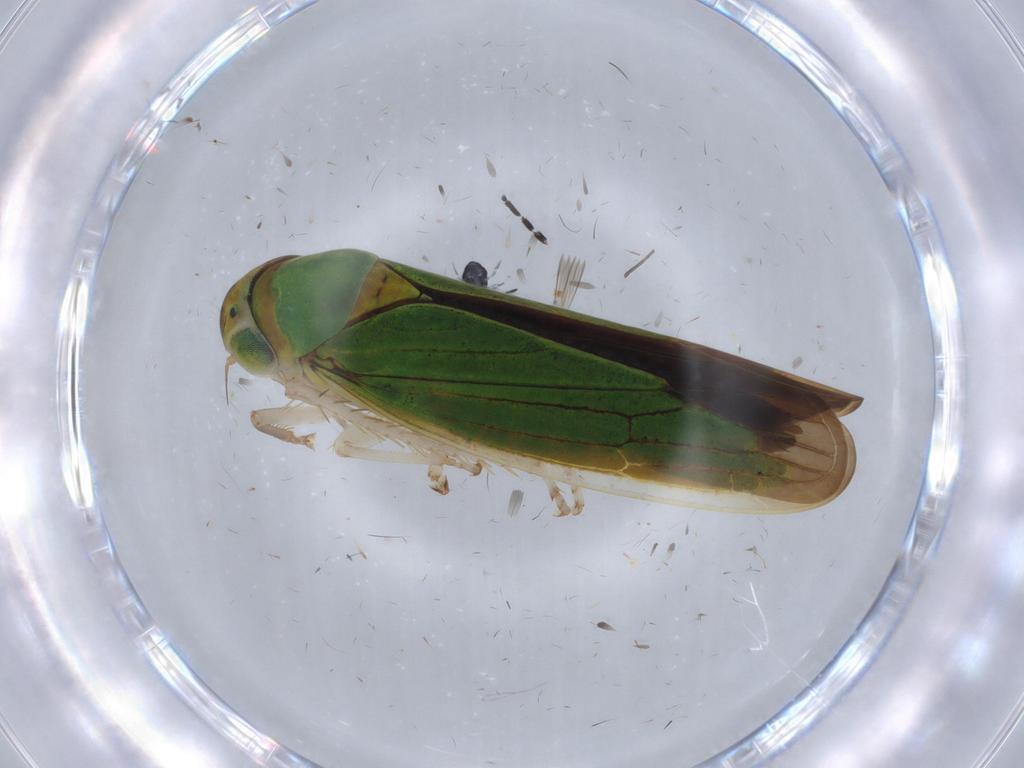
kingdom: Animalia
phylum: Arthropoda
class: Insecta
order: Hemiptera
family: Cicadellidae
